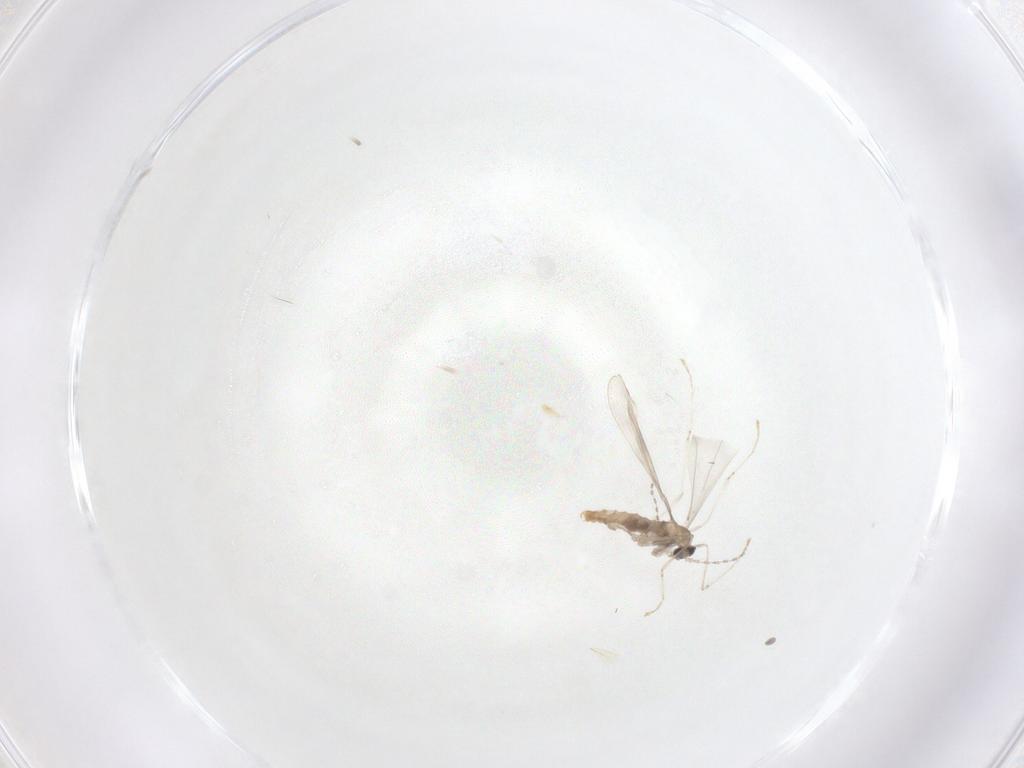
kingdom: Animalia
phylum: Arthropoda
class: Insecta
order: Diptera
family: Cecidomyiidae
